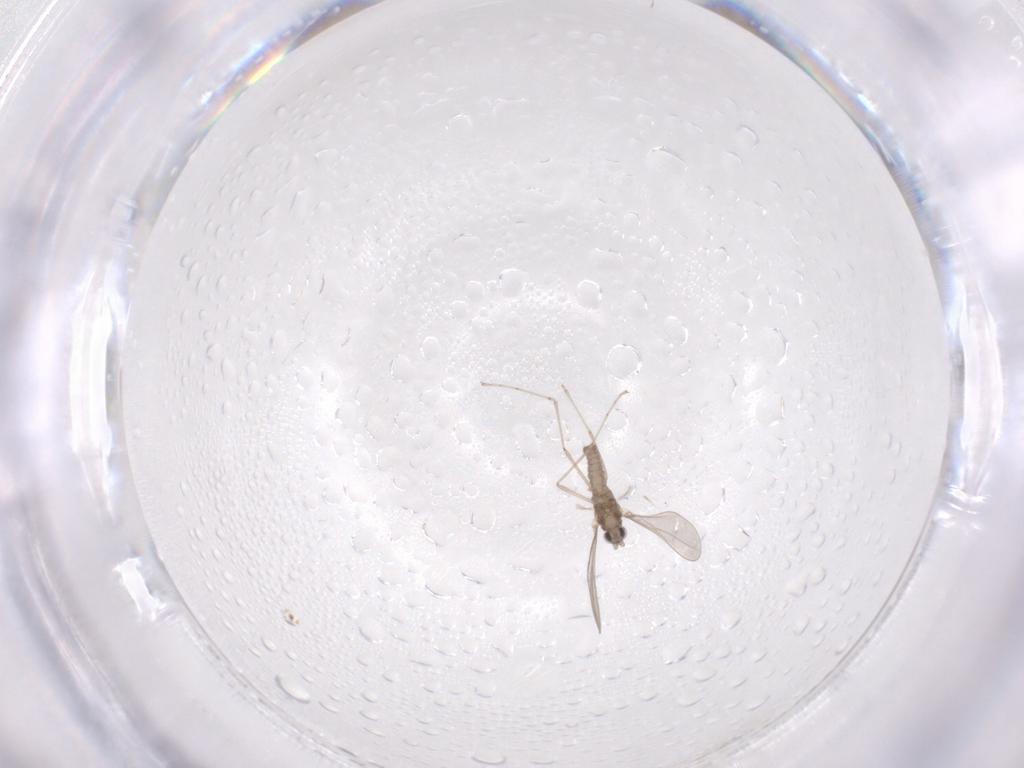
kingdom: Animalia
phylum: Arthropoda
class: Insecta
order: Diptera
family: Cecidomyiidae
